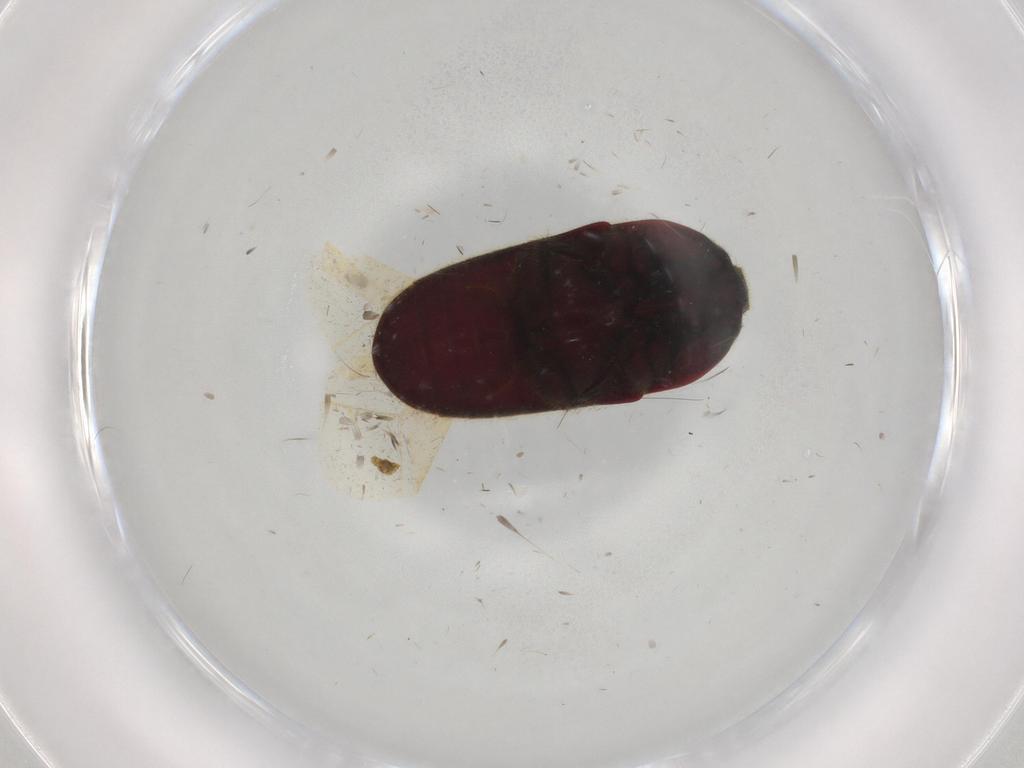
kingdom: Animalia
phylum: Arthropoda
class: Insecta
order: Coleoptera
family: Throscidae
